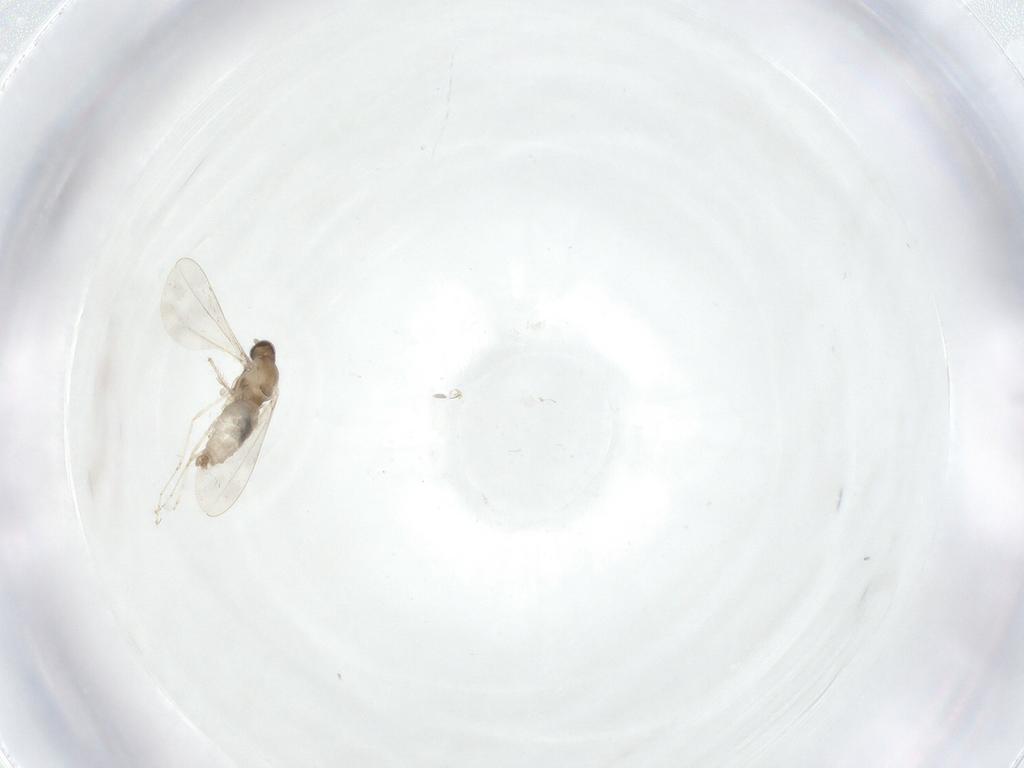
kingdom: Animalia
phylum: Arthropoda
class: Insecta
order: Diptera
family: Cecidomyiidae
